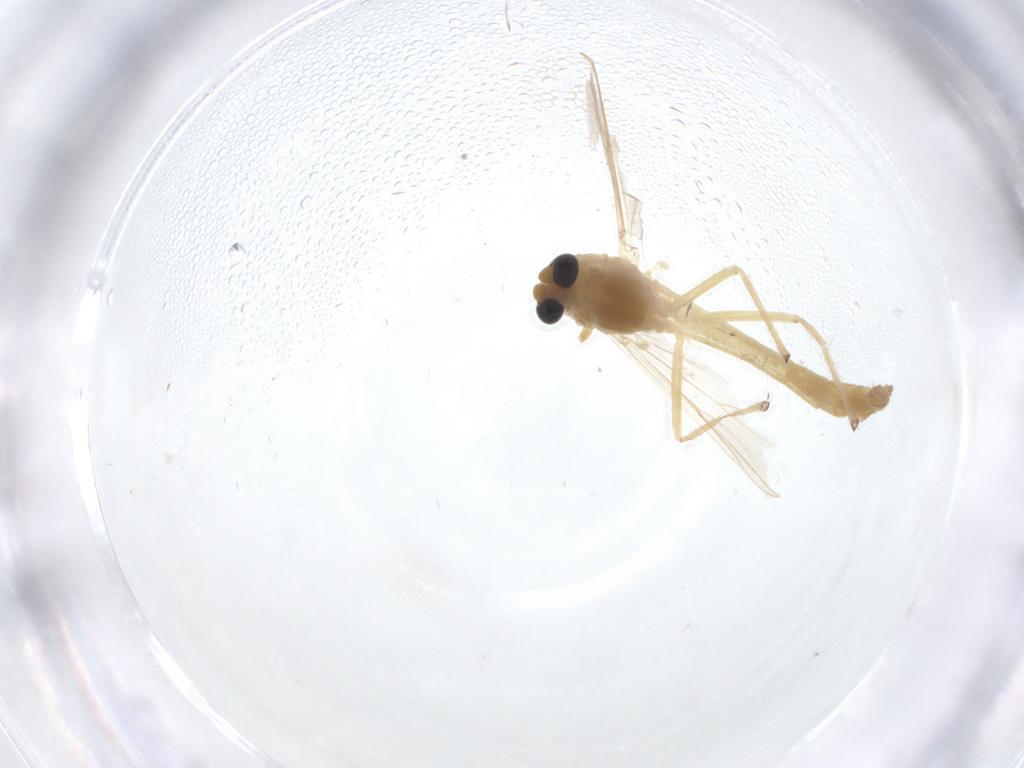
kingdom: Animalia
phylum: Arthropoda
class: Insecta
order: Diptera
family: Chironomidae
